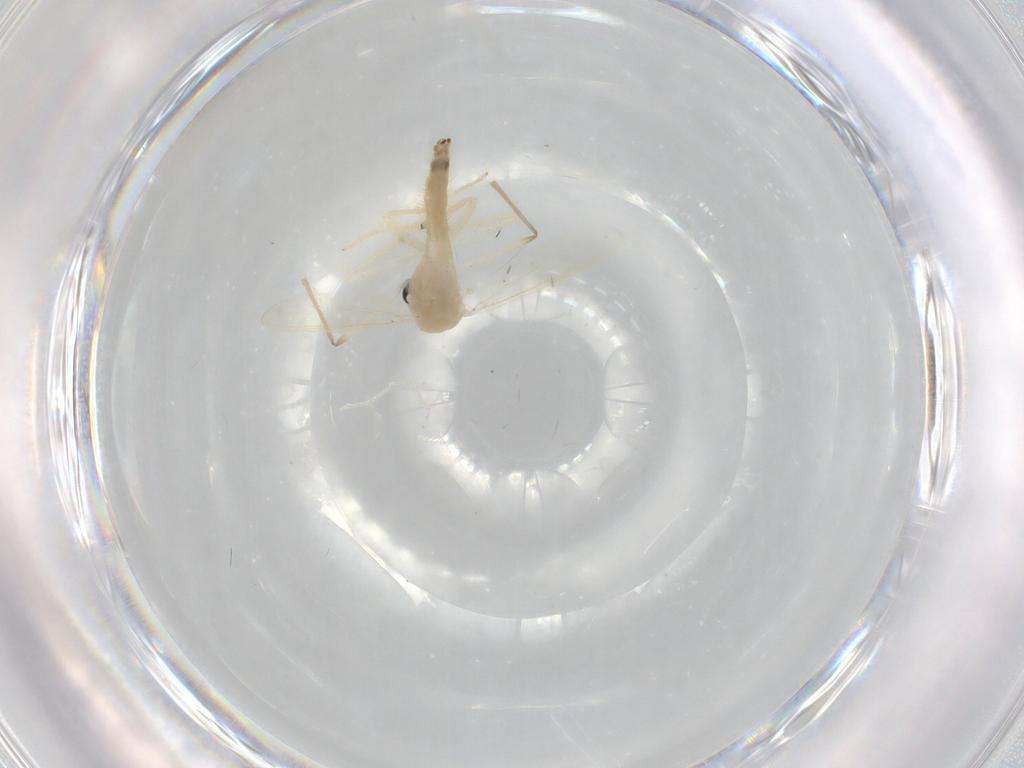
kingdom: Animalia
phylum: Arthropoda
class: Insecta
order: Diptera
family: Chironomidae
